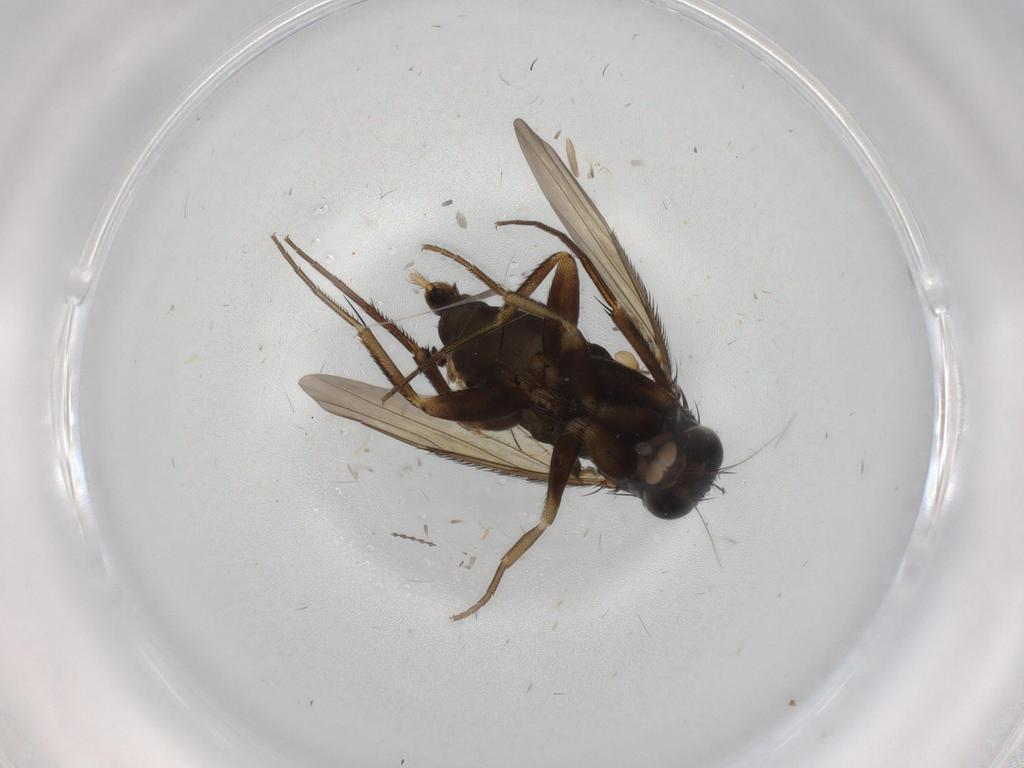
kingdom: Animalia
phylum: Arthropoda
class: Insecta
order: Diptera
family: Phoridae
